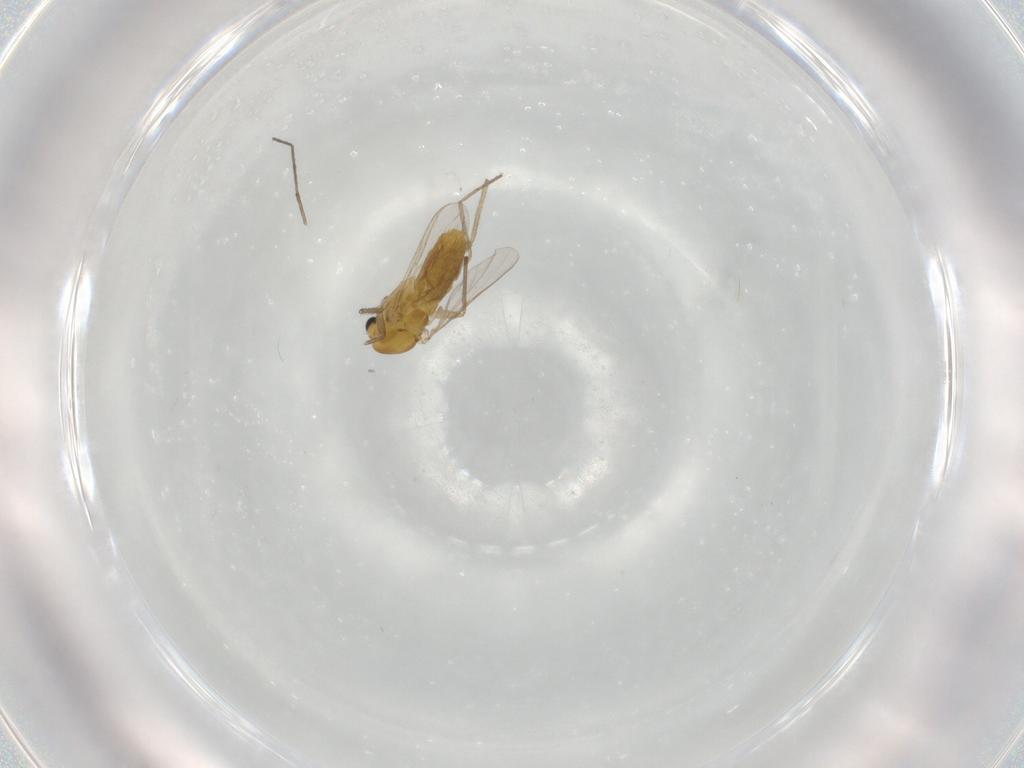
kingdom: Animalia
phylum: Arthropoda
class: Insecta
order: Diptera
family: Chironomidae
